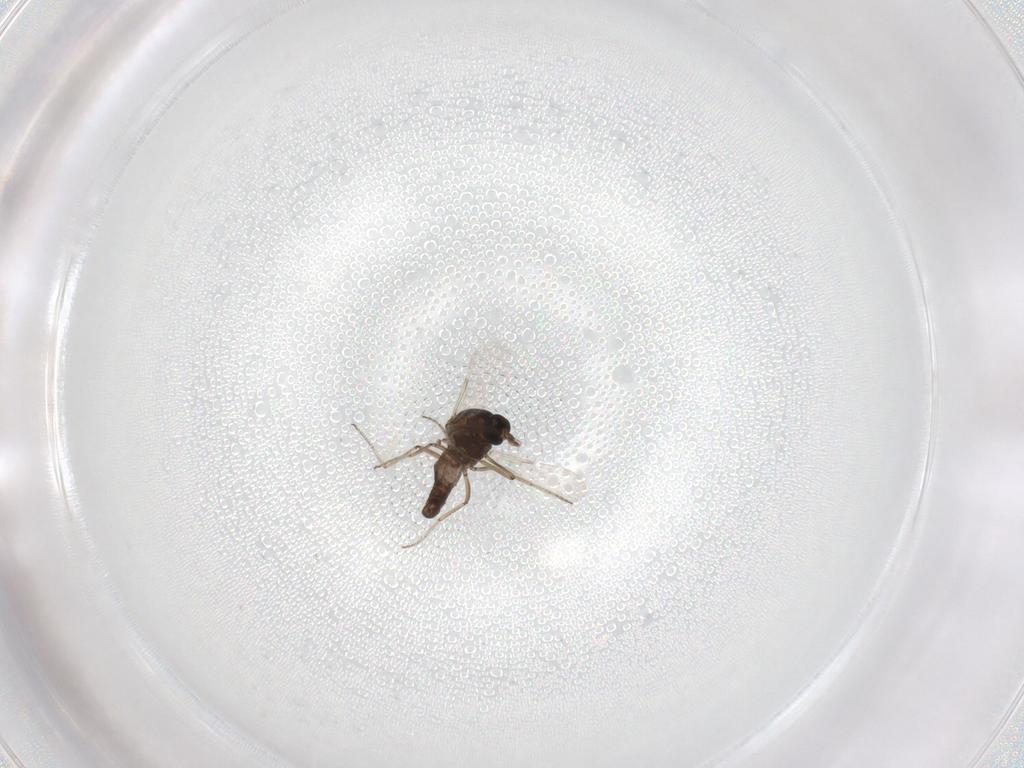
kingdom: Animalia
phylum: Arthropoda
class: Insecta
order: Diptera
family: Ceratopogonidae
